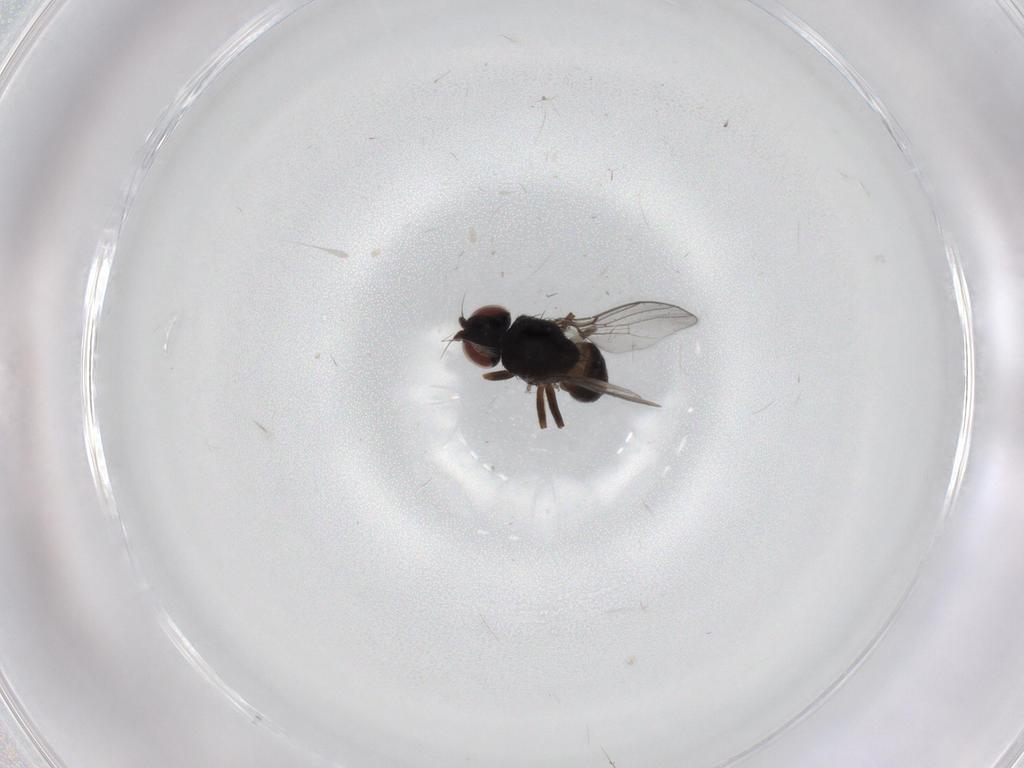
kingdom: Animalia
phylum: Arthropoda
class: Insecta
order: Diptera
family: Chloropidae
